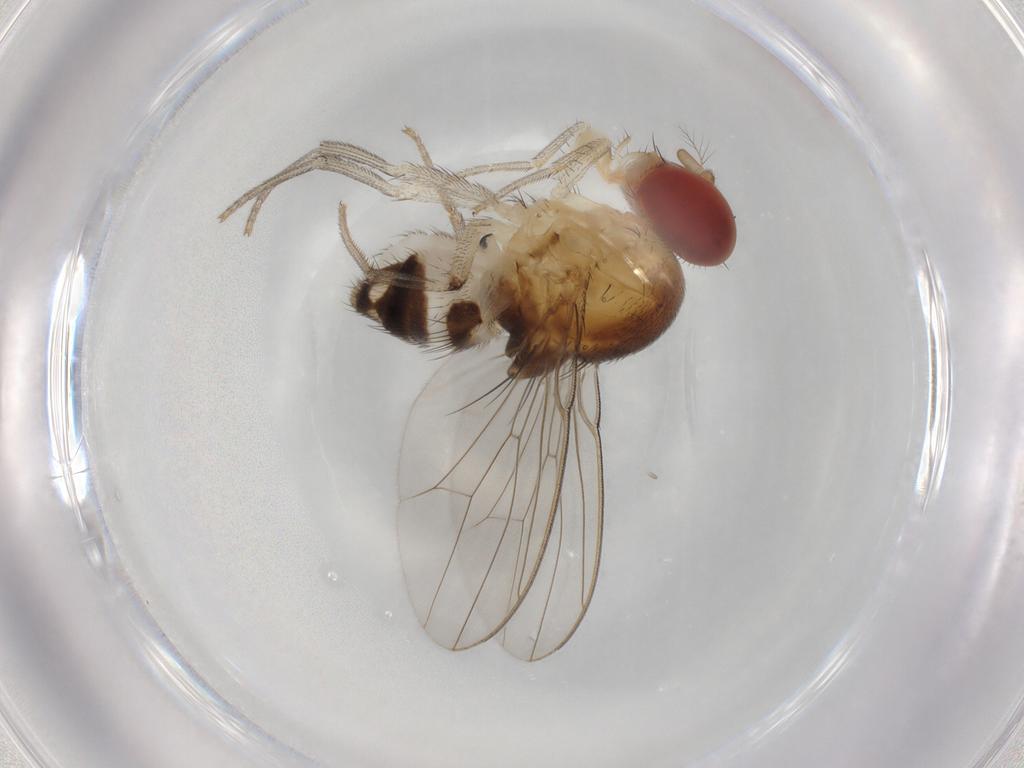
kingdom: Animalia
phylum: Arthropoda
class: Insecta
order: Diptera
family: Drosophilidae
